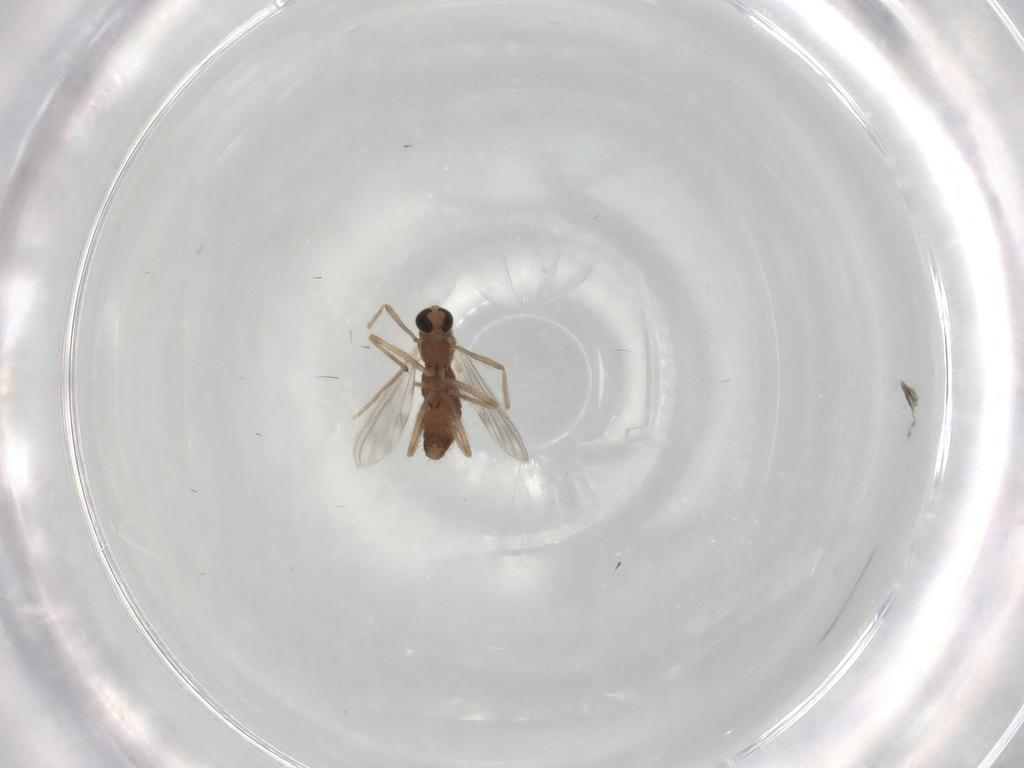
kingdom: Animalia
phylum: Arthropoda
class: Insecta
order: Diptera
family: Chironomidae
